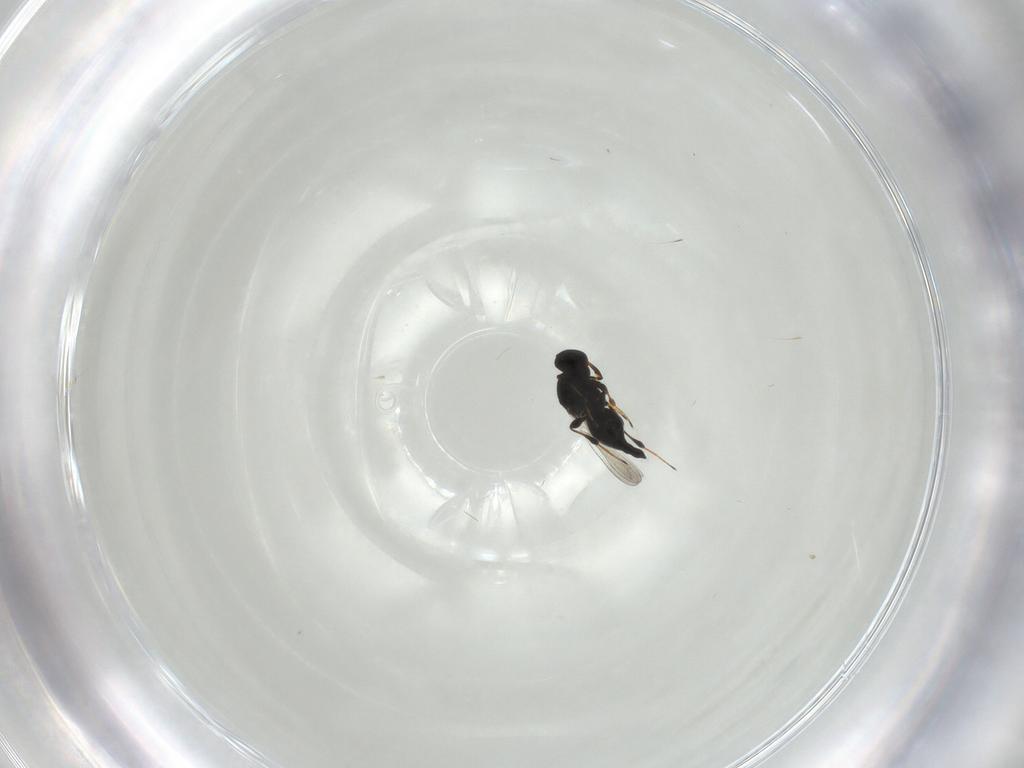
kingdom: Animalia
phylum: Arthropoda
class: Insecta
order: Hymenoptera
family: Platygastridae
